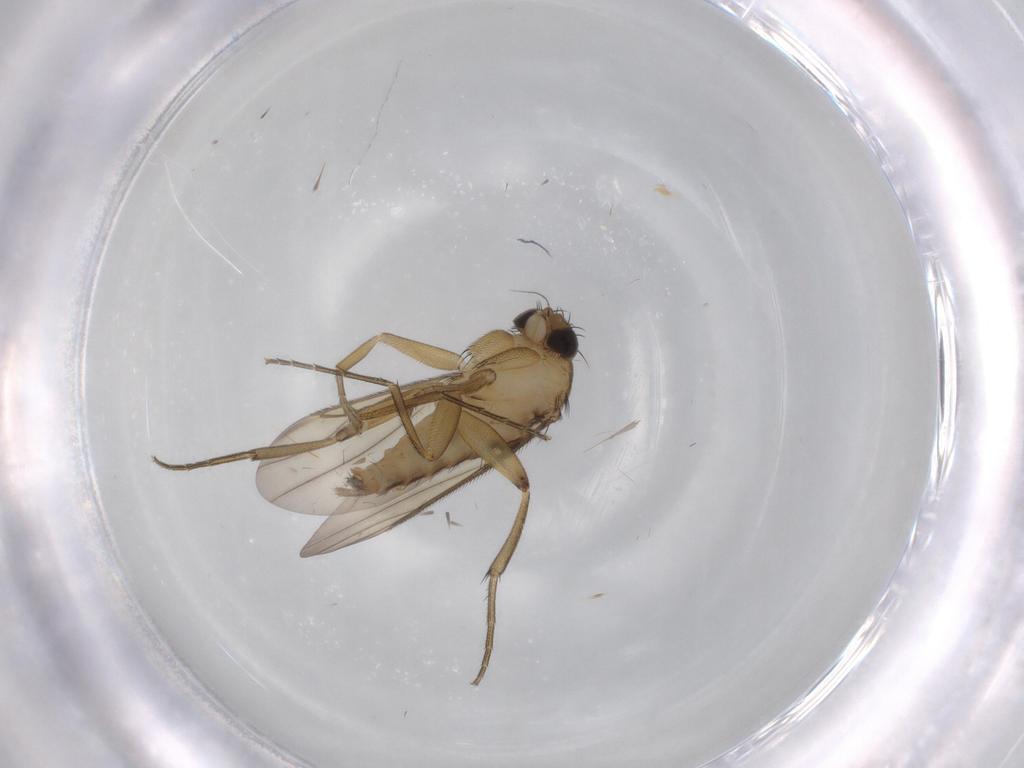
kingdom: Animalia
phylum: Arthropoda
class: Insecta
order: Diptera
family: Phoridae
